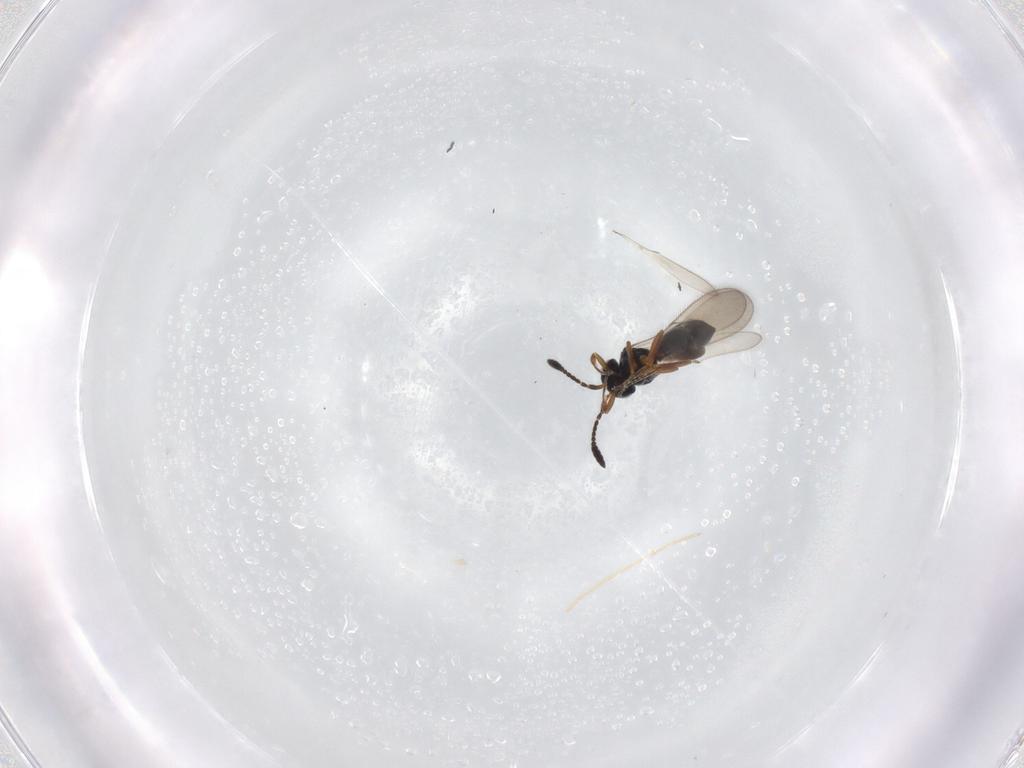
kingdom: Animalia
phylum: Arthropoda
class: Insecta
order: Hymenoptera
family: Scelionidae
